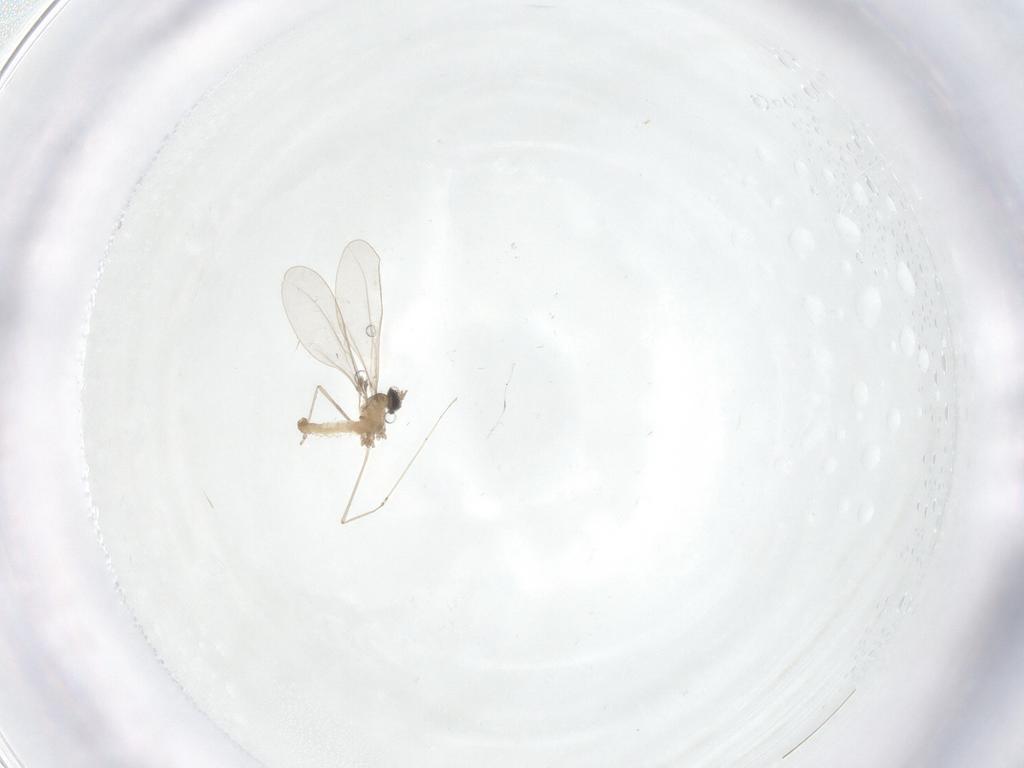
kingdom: Animalia
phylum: Arthropoda
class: Insecta
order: Diptera
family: Cecidomyiidae
